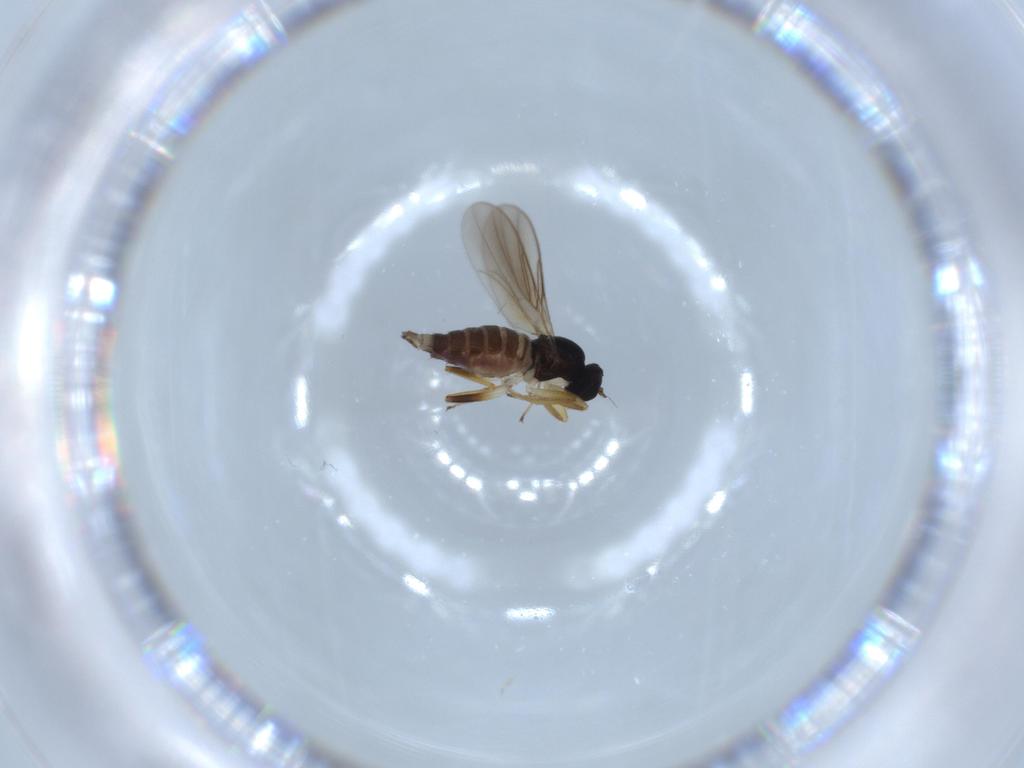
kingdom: Animalia
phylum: Arthropoda
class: Insecta
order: Diptera
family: Hybotidae
